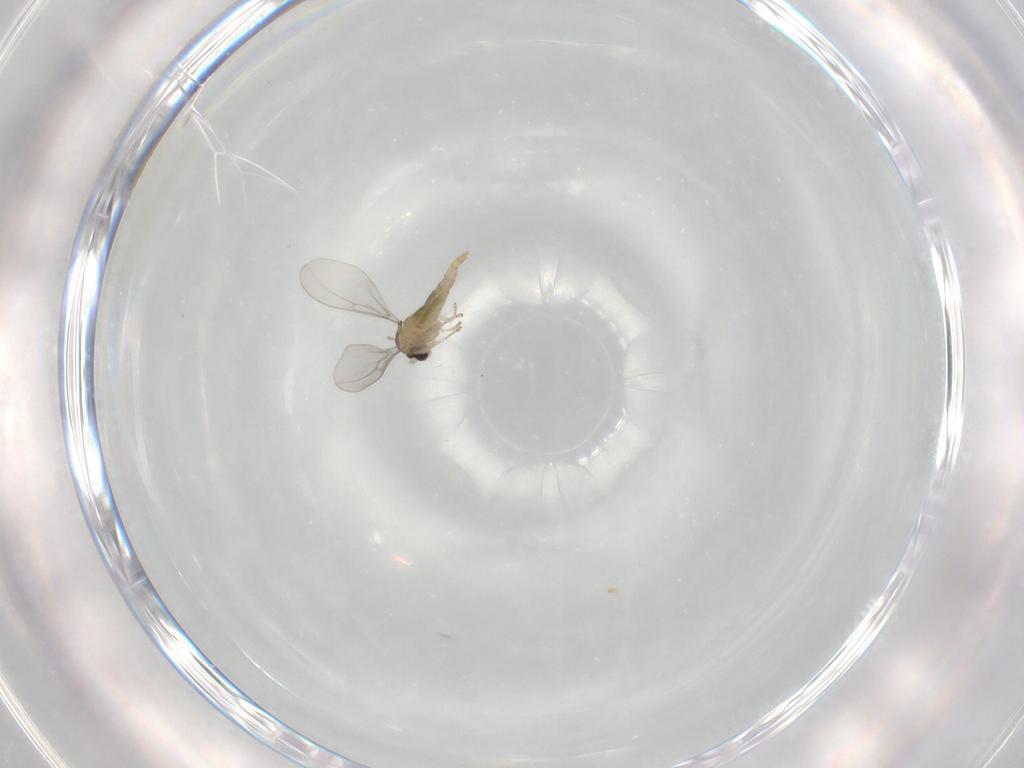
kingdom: Animalia
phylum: Arthropoda
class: Insecta
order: Diptera
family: Cecidomyiidae
